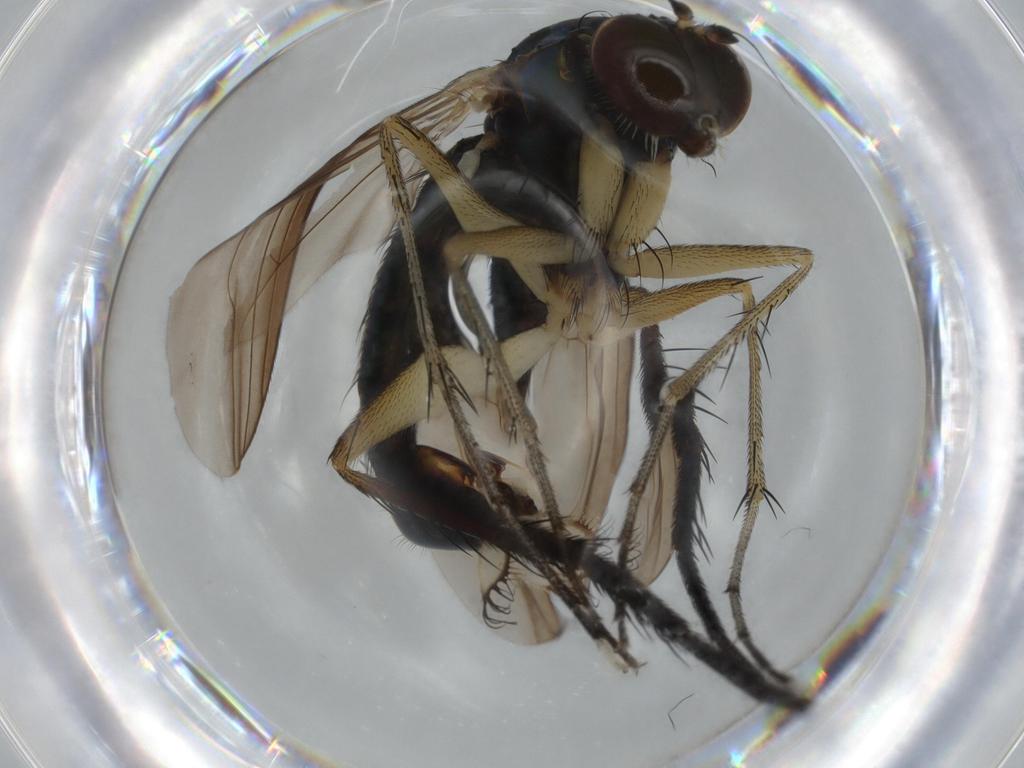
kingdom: Animalia
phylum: Arthropoda
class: Insecta
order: Diptera
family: Dolichopodidae
